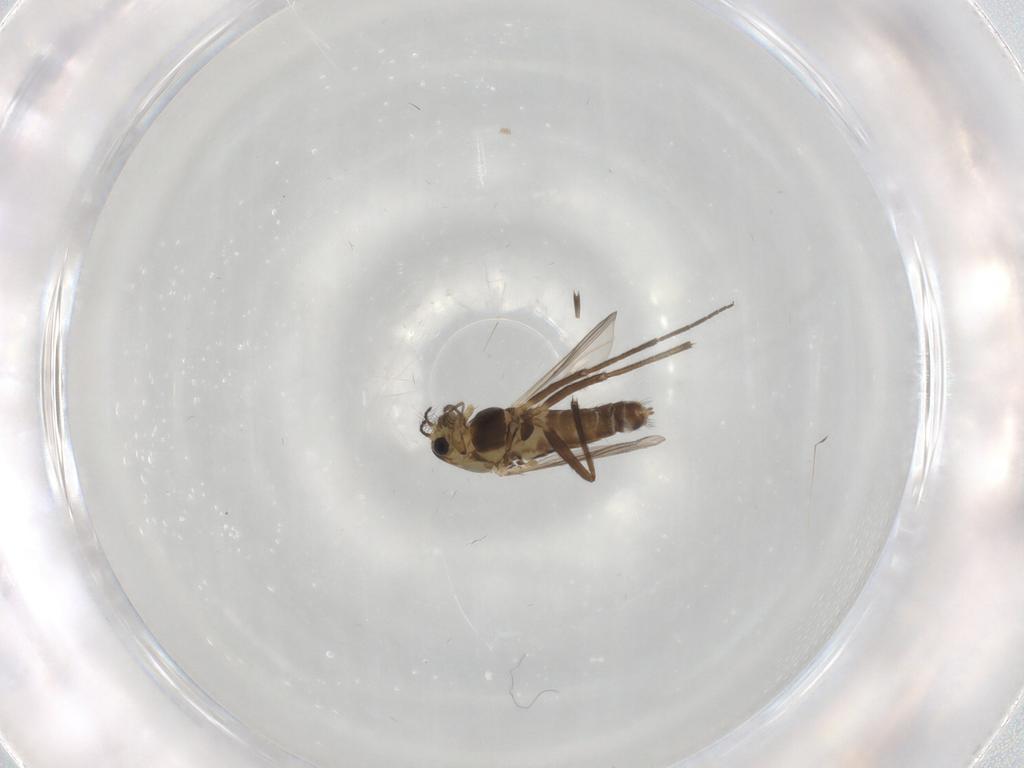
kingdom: Animalia
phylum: Arthropoda
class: Insecta
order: Diptera
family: Chironomidae
